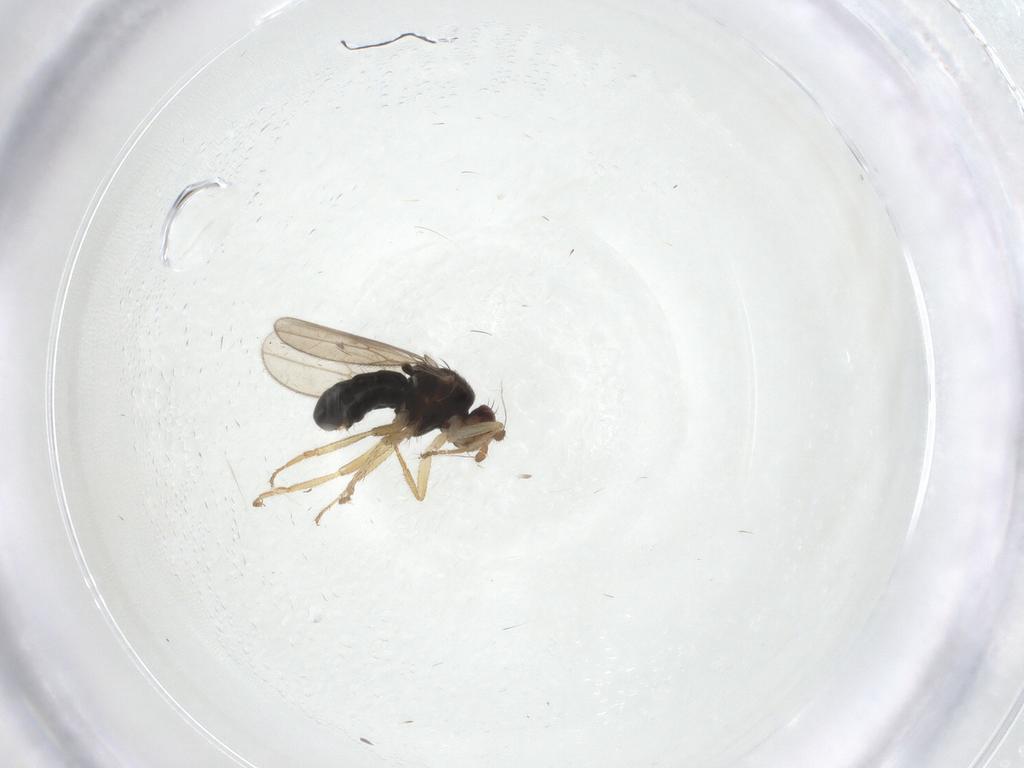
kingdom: Animalia
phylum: Arthropoda
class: Insecta
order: Diptera
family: Sphaeroceridae
